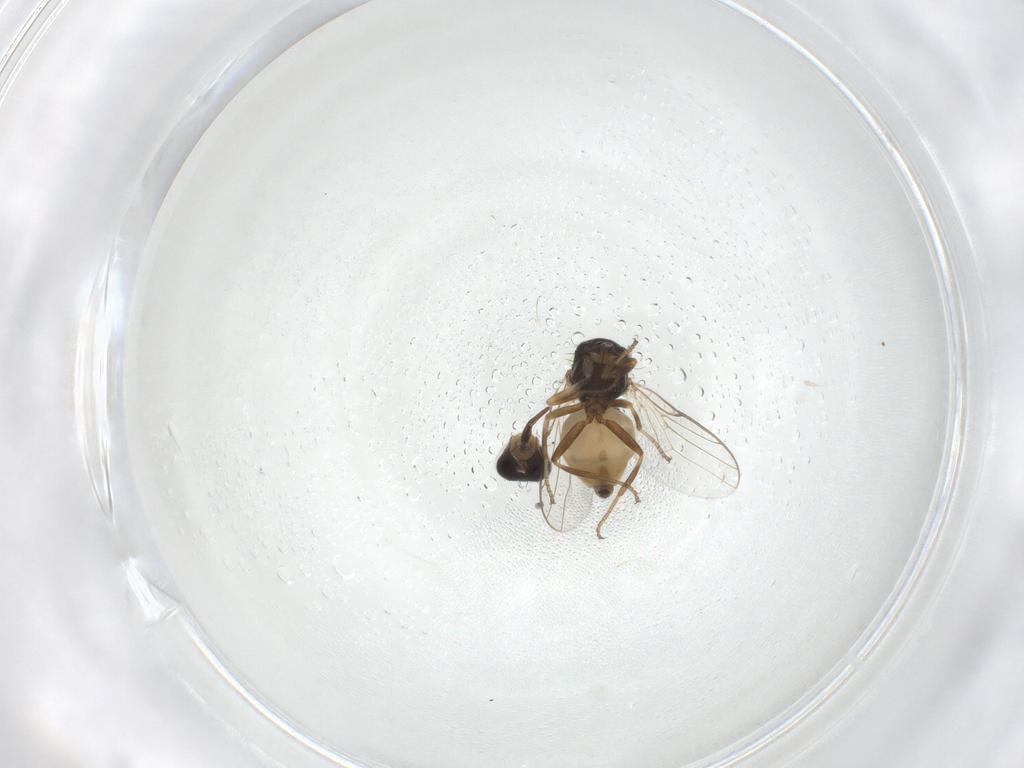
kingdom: Animalia
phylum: Arthropoda
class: Insecta
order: Diptera
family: Chloropidae
